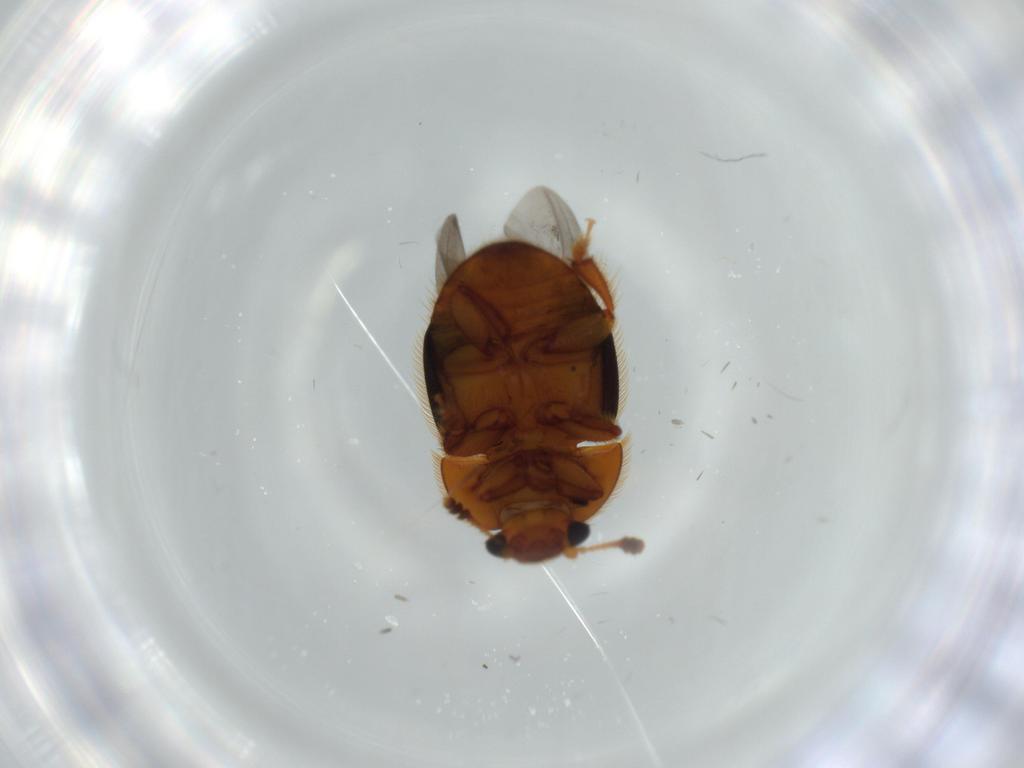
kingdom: Animalia
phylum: Arthropoda
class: Insecta
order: Coleoptera
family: Nitidulidae
